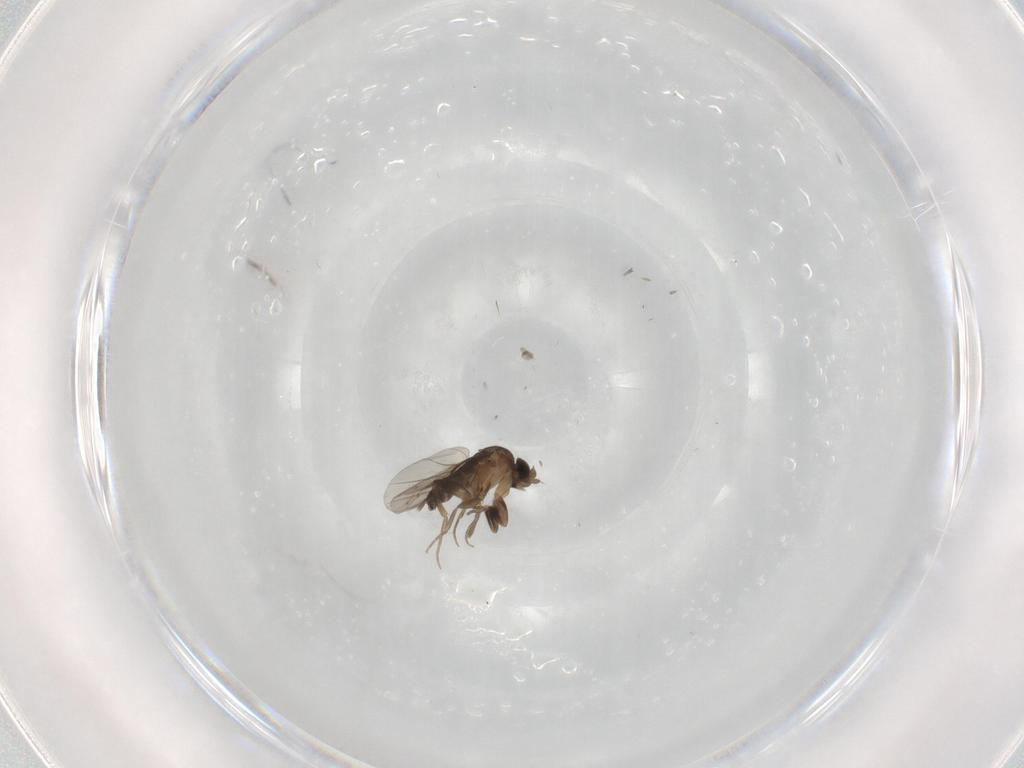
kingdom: Animalia
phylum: Arthropoda
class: Insecta
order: Diptera
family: Phoridae
